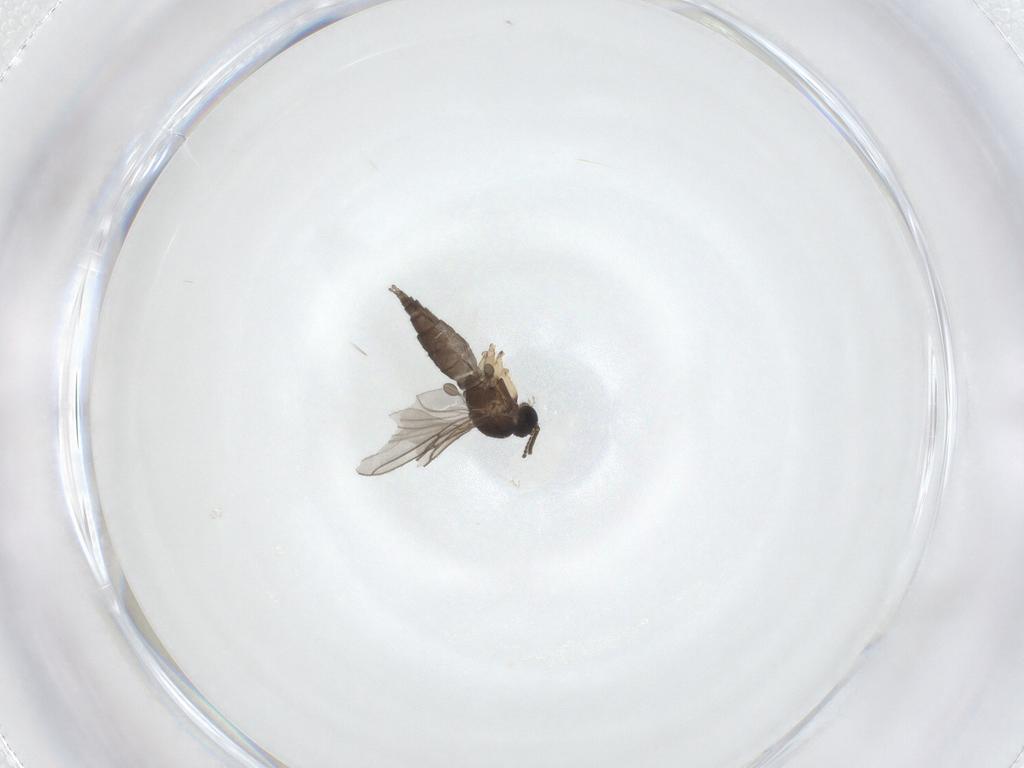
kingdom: Animalia
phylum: Arthropoda
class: Insecta
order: Diptera
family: Sciaridae
